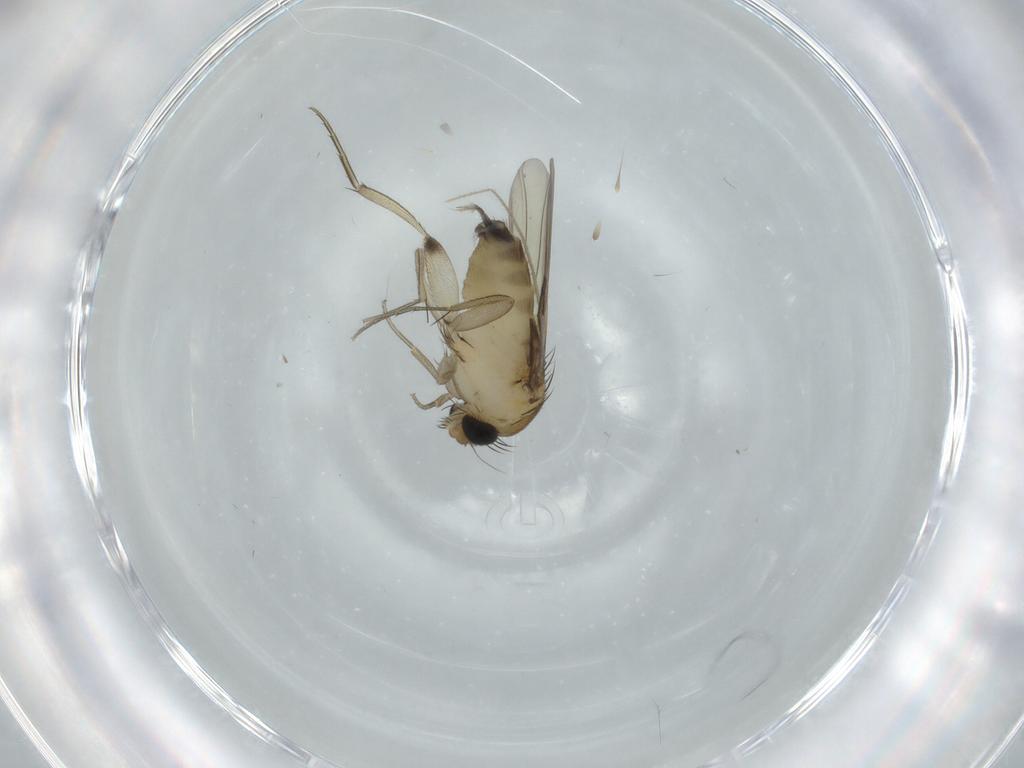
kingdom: Animalia
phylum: Arthropoda
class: Insecta
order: Diptera
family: Phoridae
